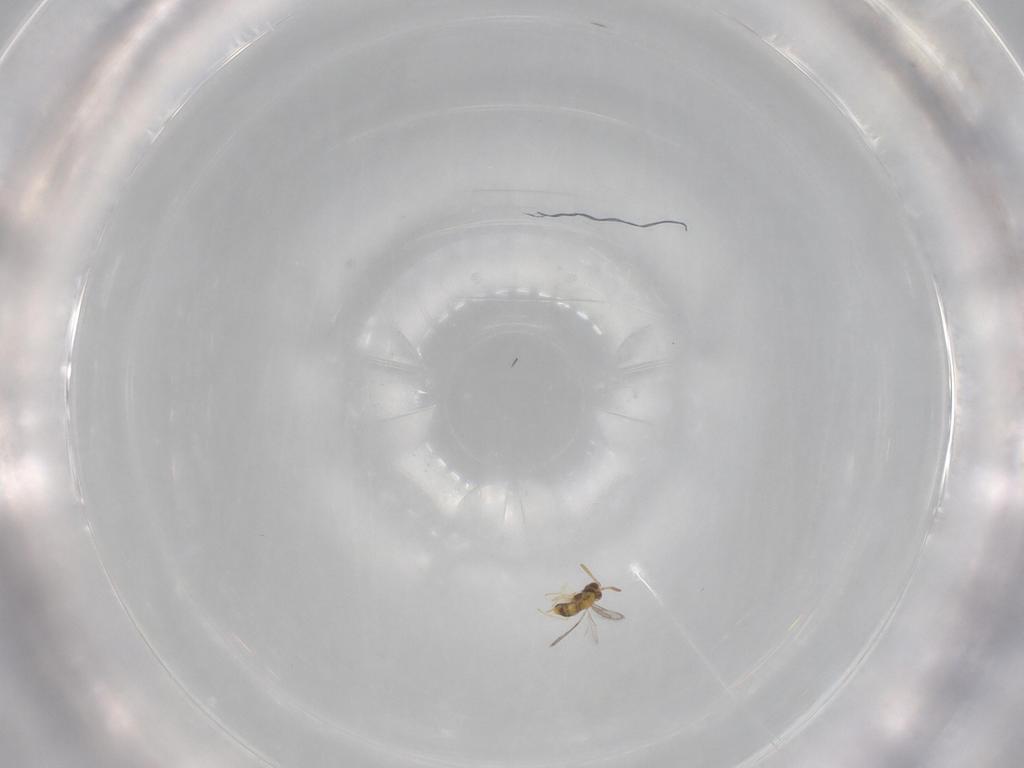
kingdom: Animalia
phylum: Arthropoda
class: Insecta
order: Hymenoptera
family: Aphelinidae
